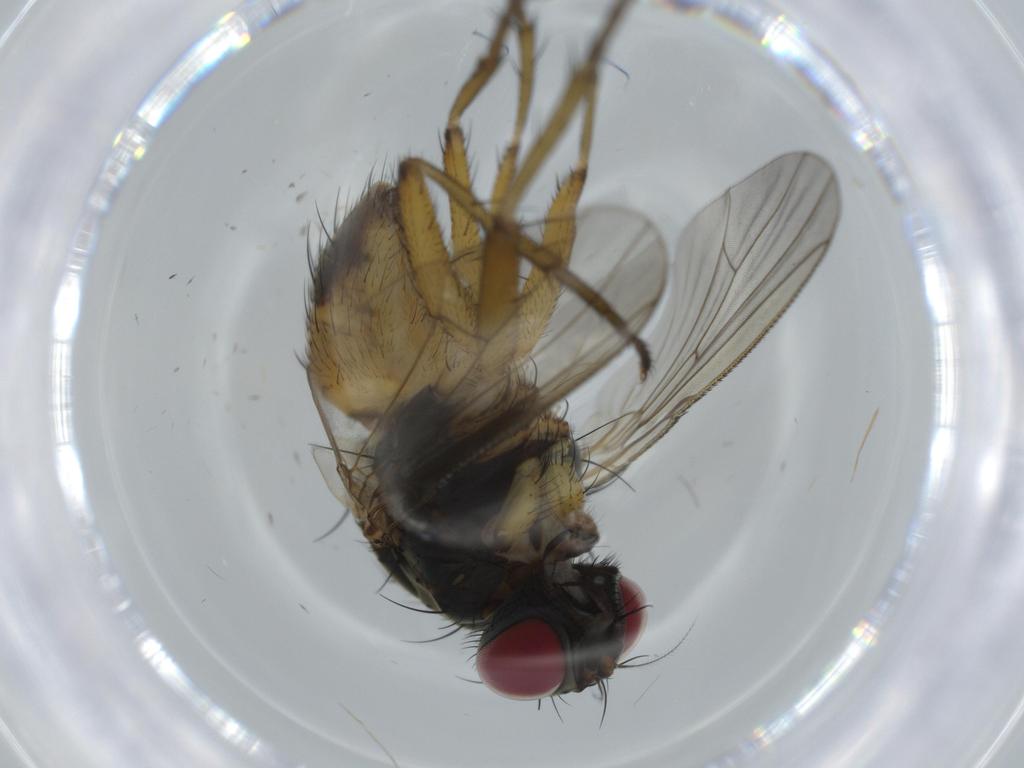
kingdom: Animalia
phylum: Arthropoda
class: Insecta
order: Diptera
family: Muscidae
